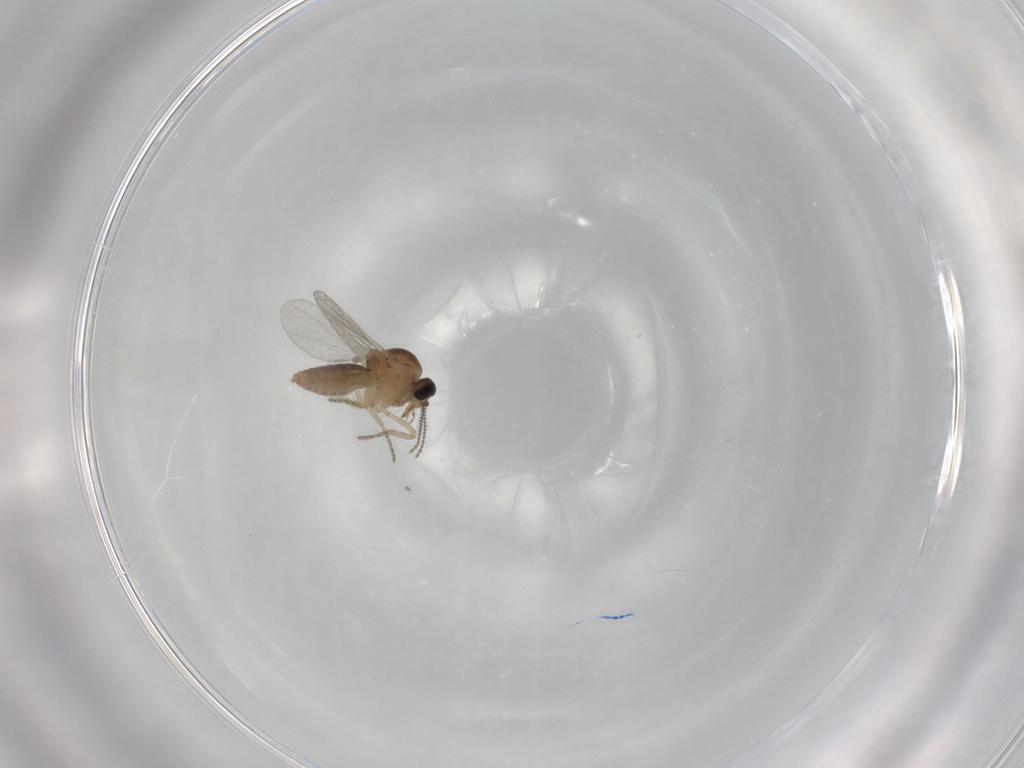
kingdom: Animalia
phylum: Arthropoda
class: Insecta
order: Diptera
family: Ceratopogonidae
